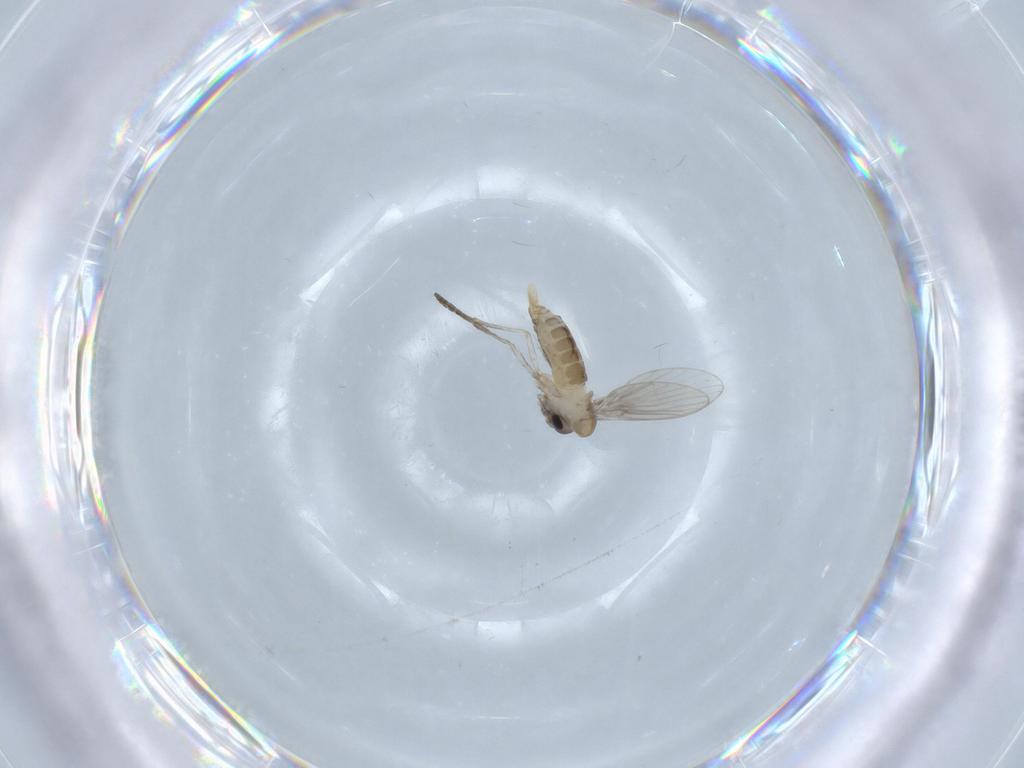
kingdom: Animalia
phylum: Arthropoda
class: Insecta
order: Diptera
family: Psychodidae
